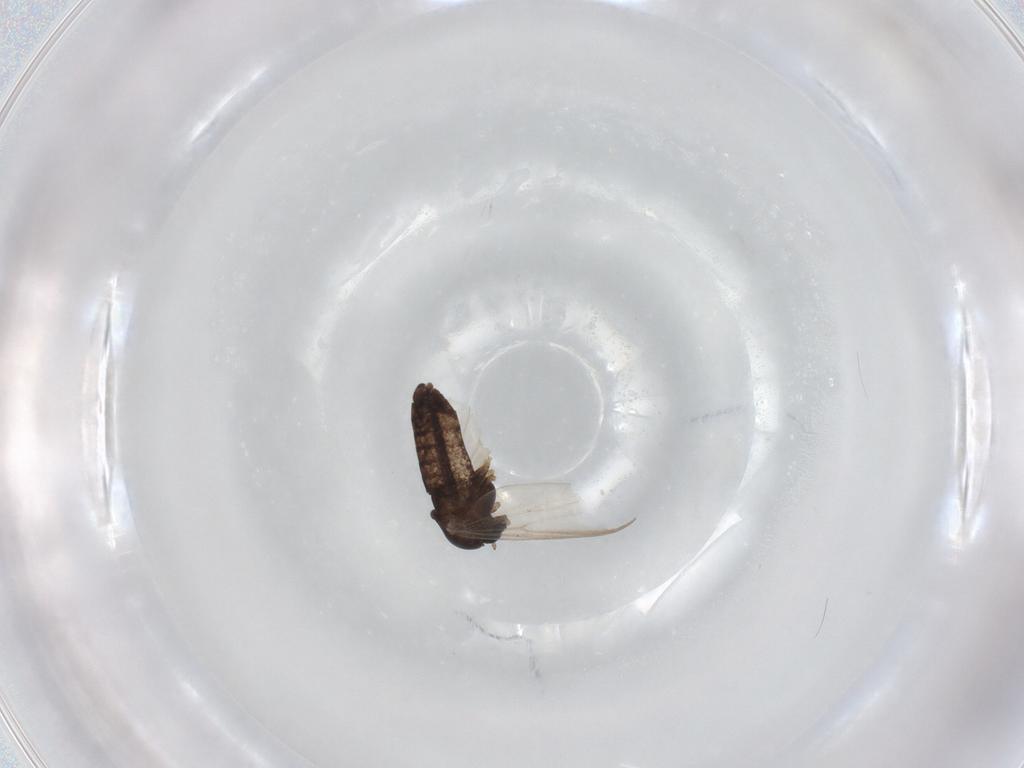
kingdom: Animalia
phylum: Arthropoda
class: Insecta
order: Diptera
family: Chironomidae
